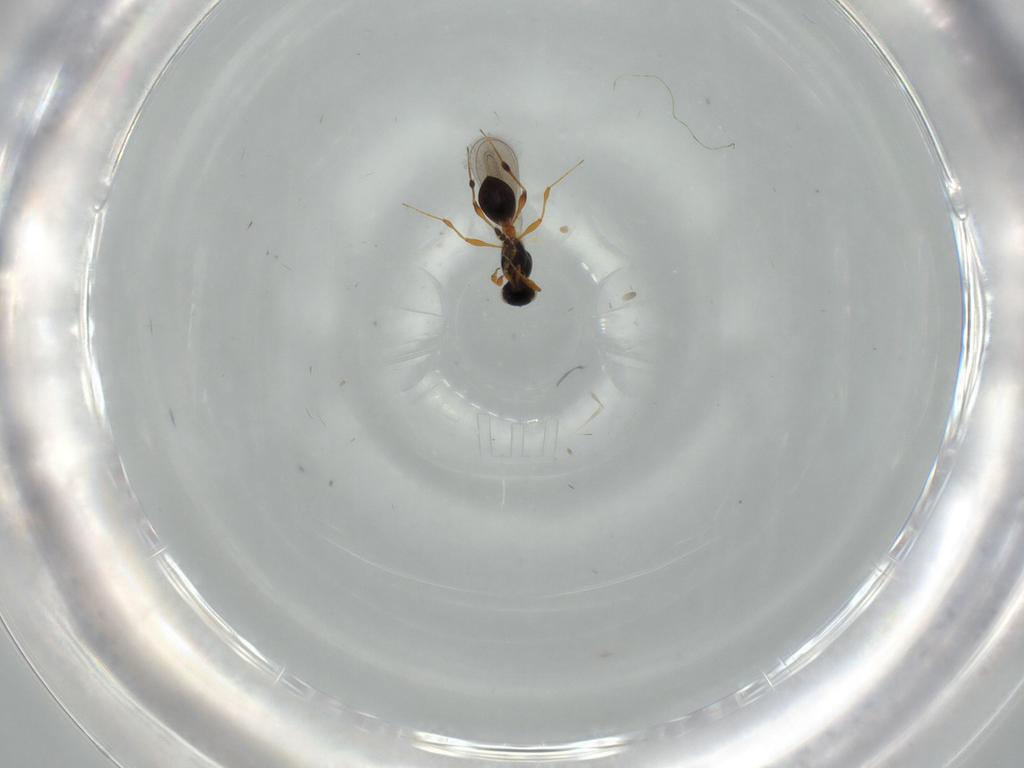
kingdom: Animalia
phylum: Arthropoda
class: Insecta
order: Hymenoptera
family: Platygastridae
